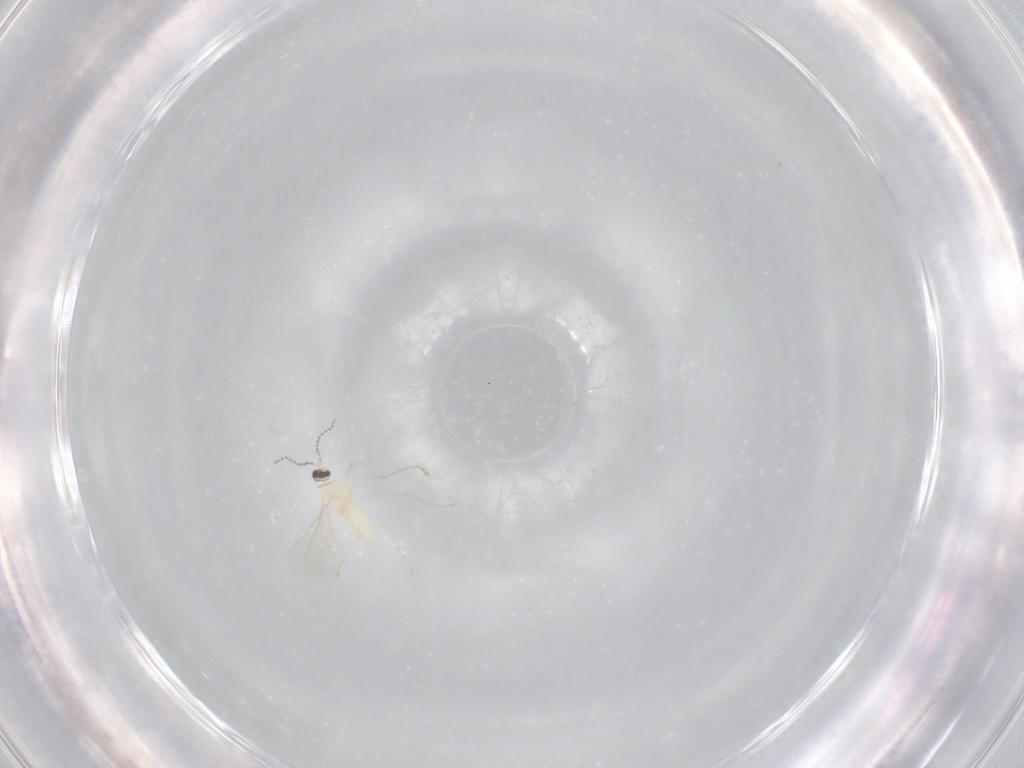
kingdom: Animalia
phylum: Arthropoda
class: Insecta
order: Diptera
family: Cecidomyiidae
